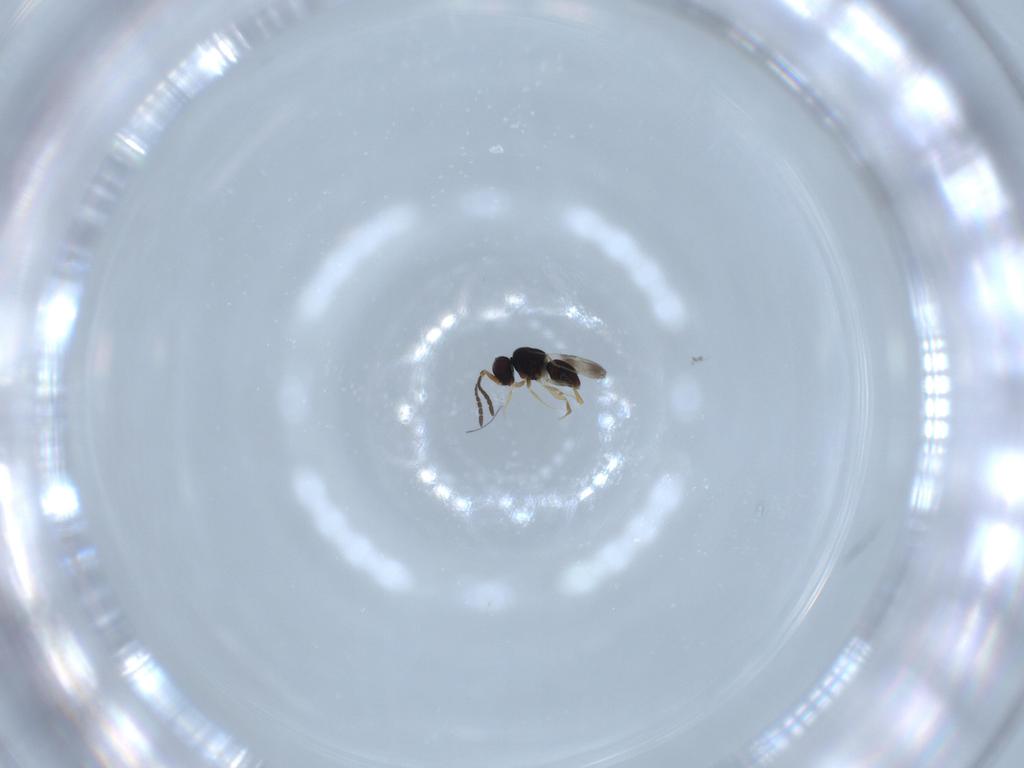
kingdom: Animalia
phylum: Arthropoda
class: Insecta
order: Hymenoptera
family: Ceraphronidae
